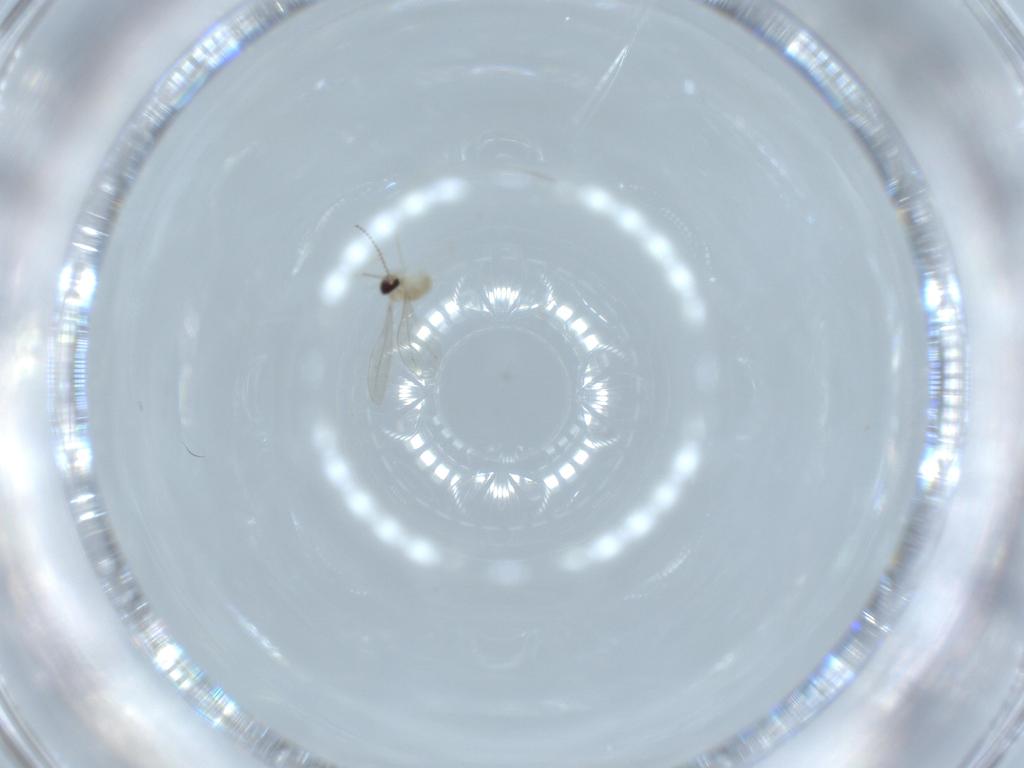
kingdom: Animalia
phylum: Arthropoda
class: Insecta
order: Diptera
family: Cecidomyiidae
